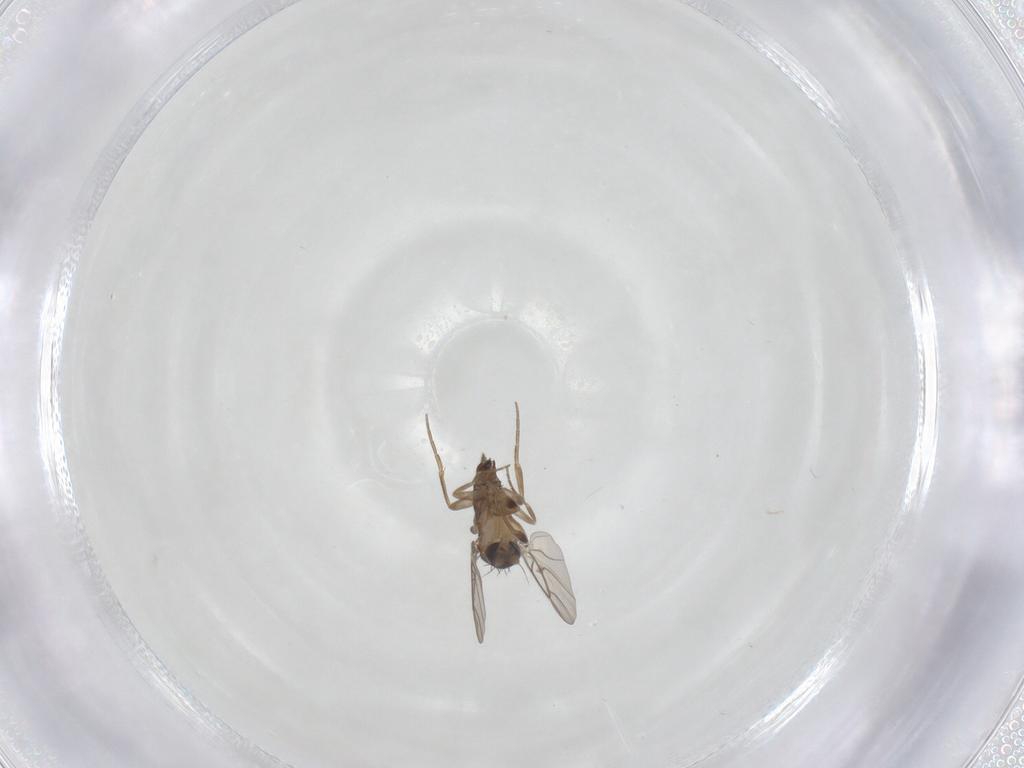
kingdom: Animalia
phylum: Arthropoda
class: Insecta
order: Diptera
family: Phoridae
